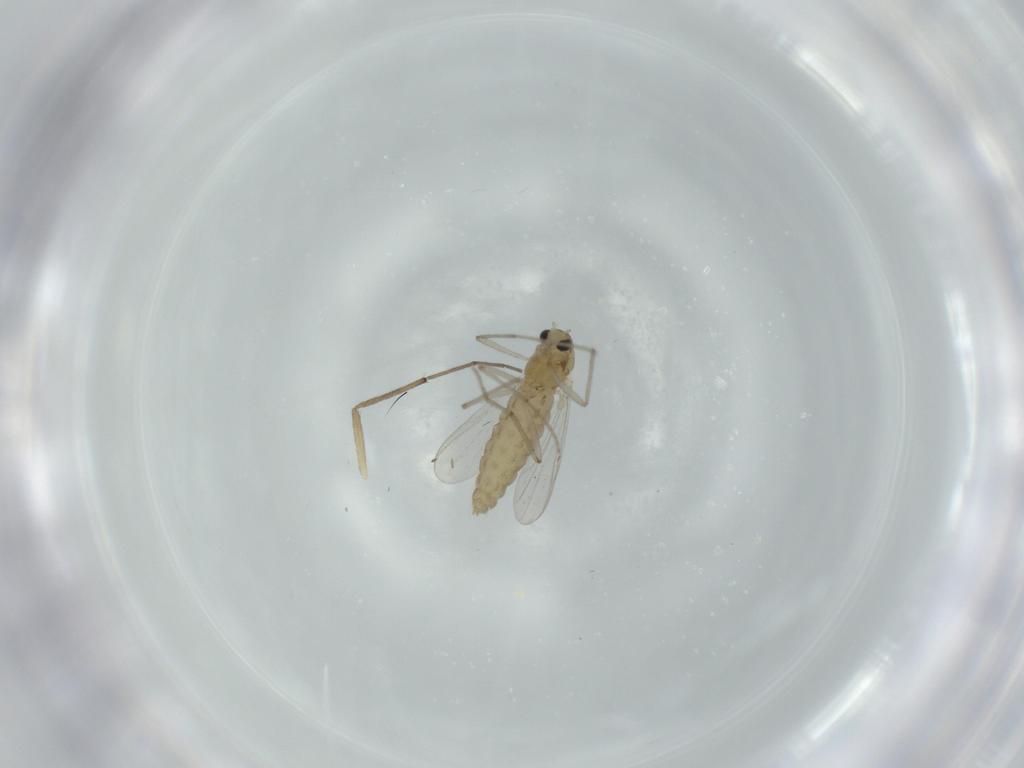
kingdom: Animalia
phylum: Arthropoda
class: Insecta
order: Diptera
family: Chironomidae
